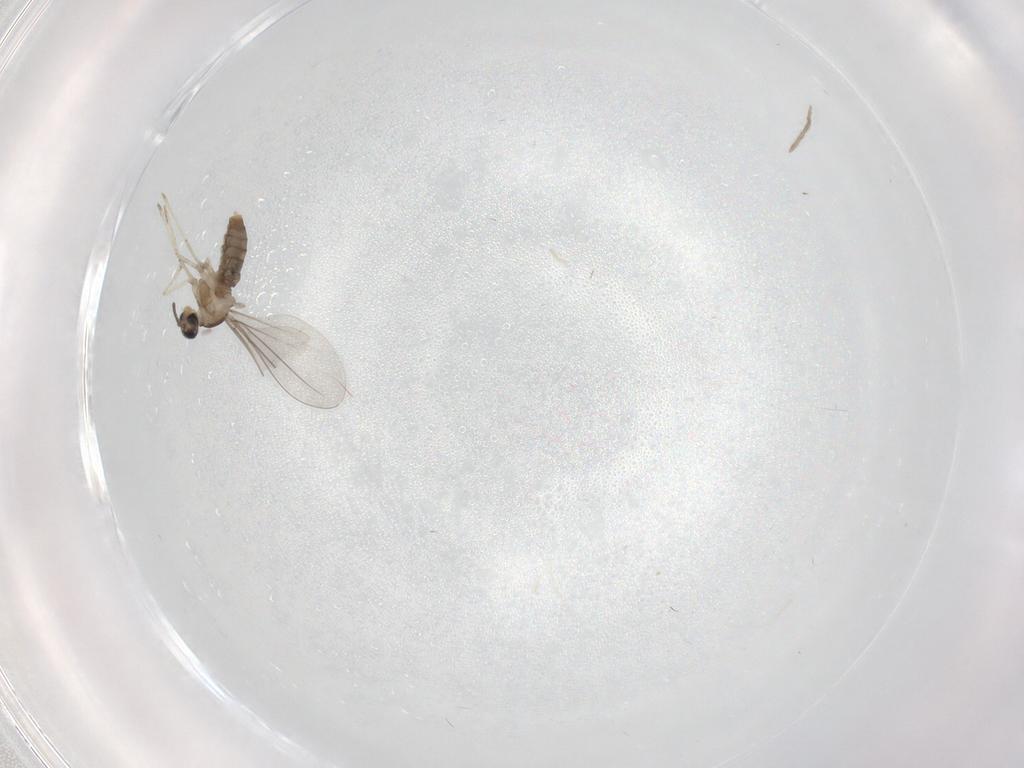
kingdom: Animalia
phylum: Arthropoda
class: Insecta
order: Diptera
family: Cecidomyiidae
